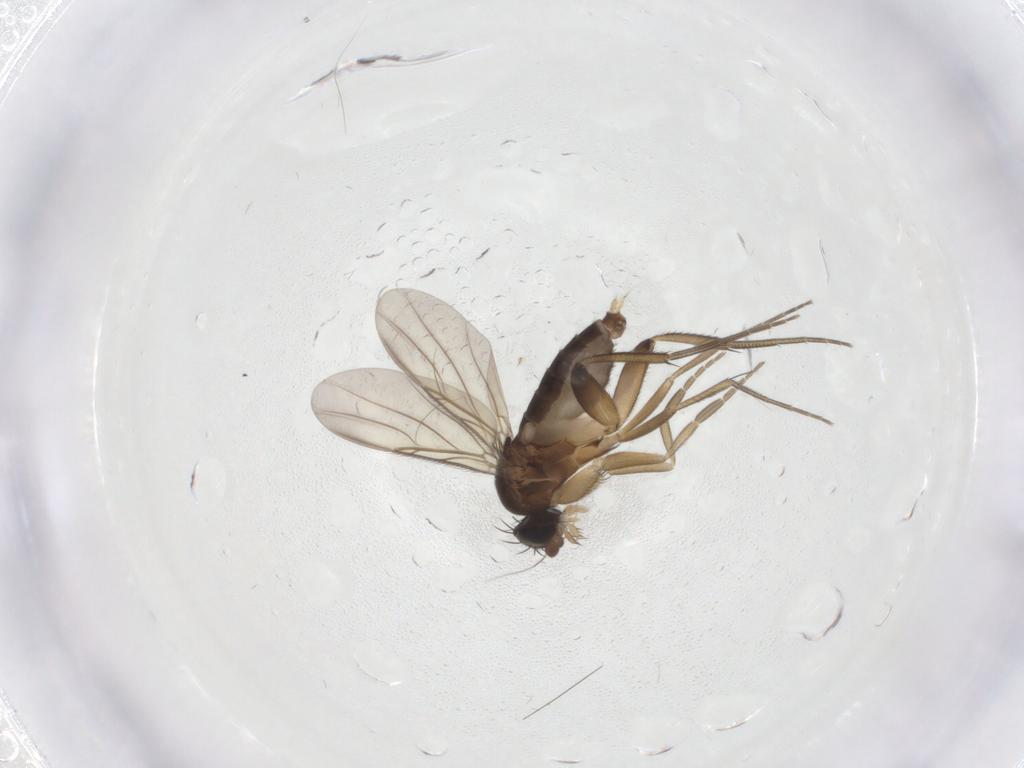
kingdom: Animalia
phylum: Arthropoda
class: Insecta
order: Diptera
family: Phoridae
